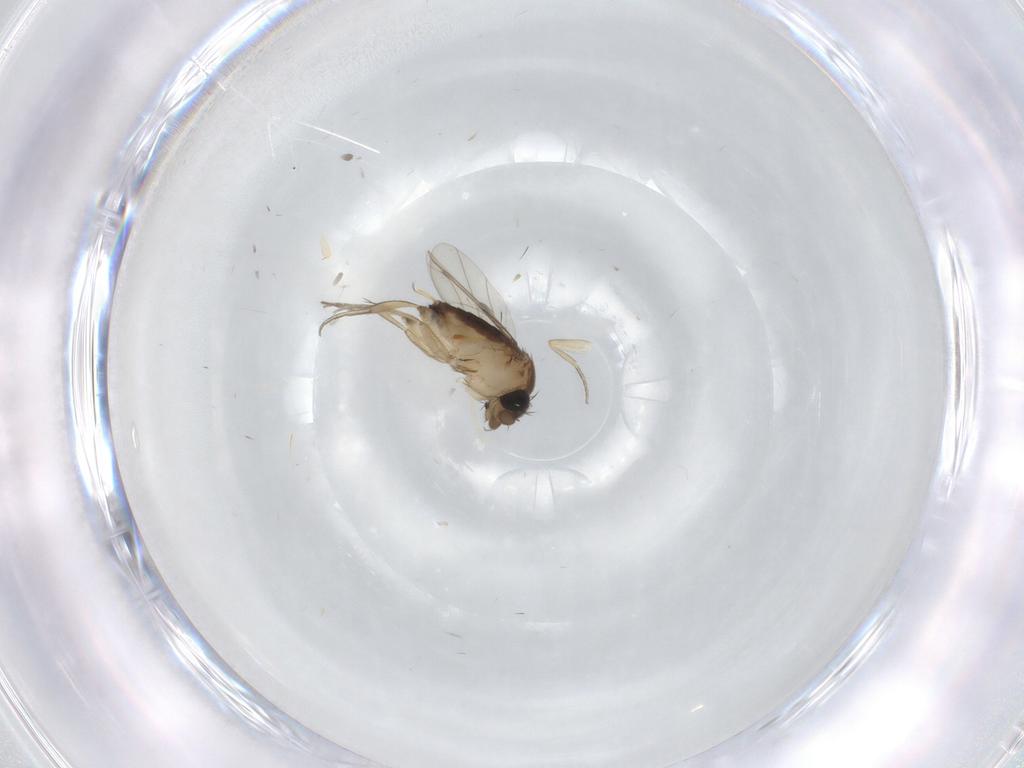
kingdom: Animalia
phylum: Arthropoda
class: Insecta
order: Diptera
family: Phoridae
